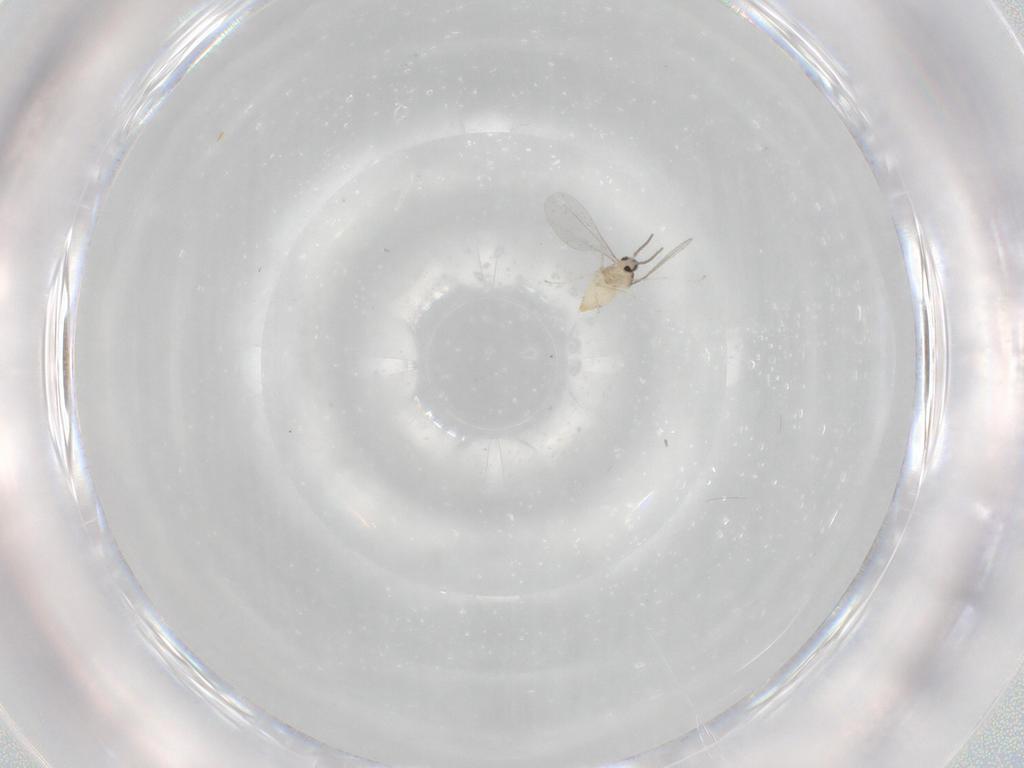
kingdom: Animalia
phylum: Arthropoda
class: Insecta
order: Diptera
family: Cecidomyiidae
